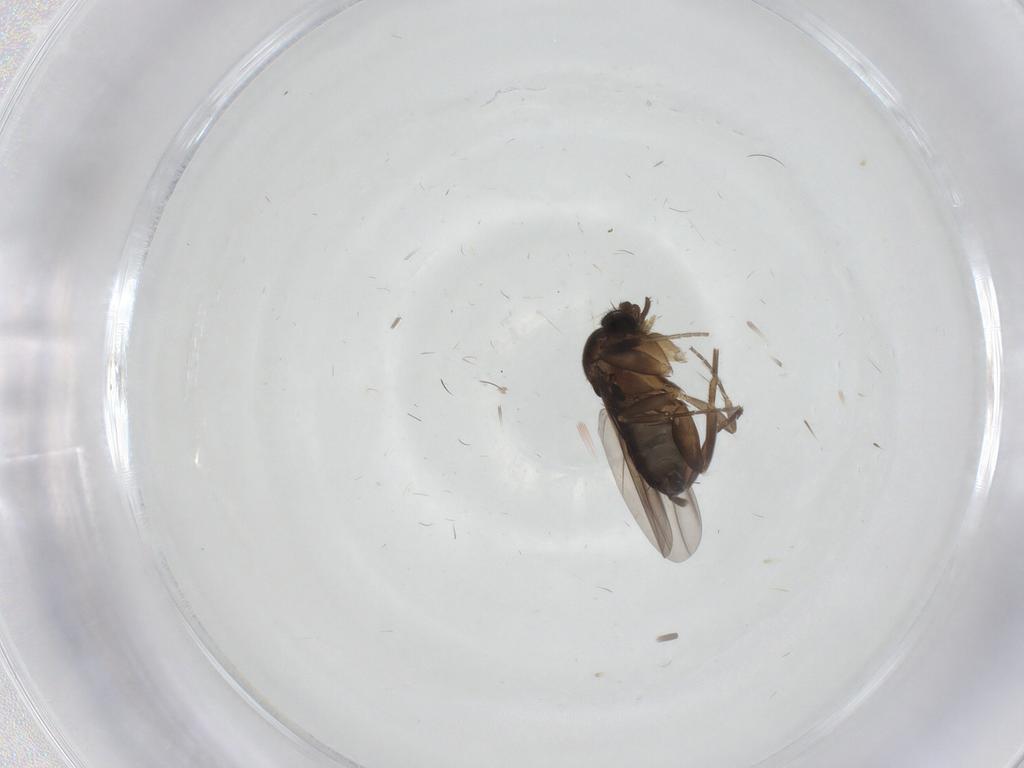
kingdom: Animalia
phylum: Arthropoda
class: Insecta
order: Diptera
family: Phoridae
